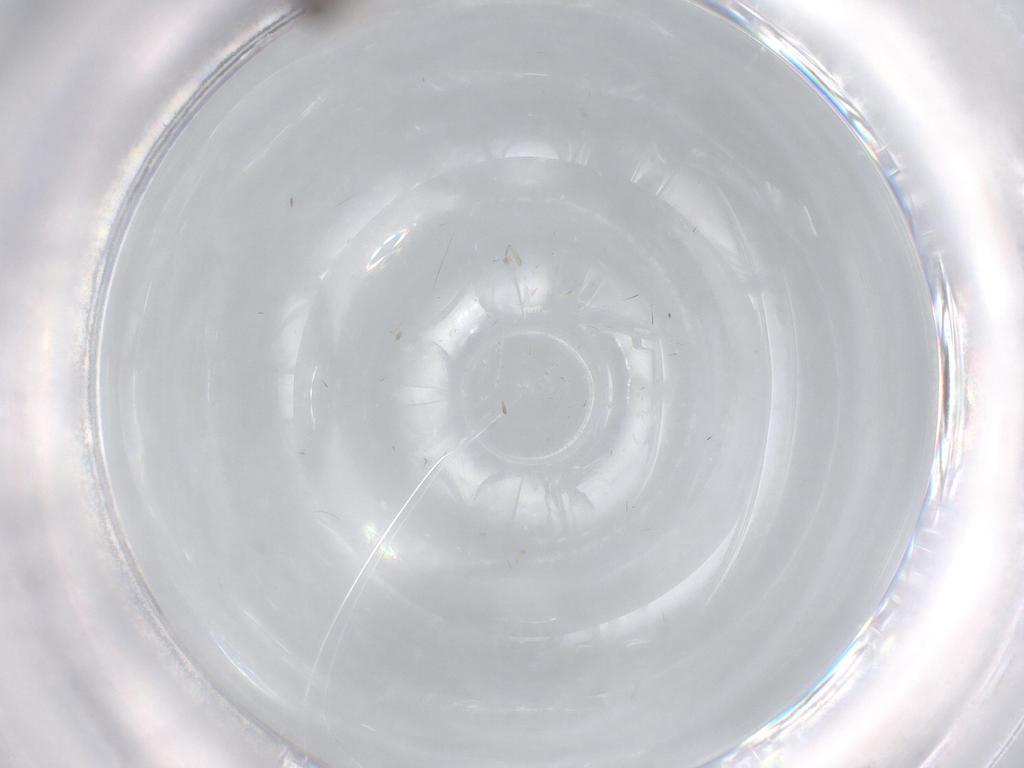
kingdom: Animalia
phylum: Arthropoda
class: Insecta
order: Diptera
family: Drosophilidae
